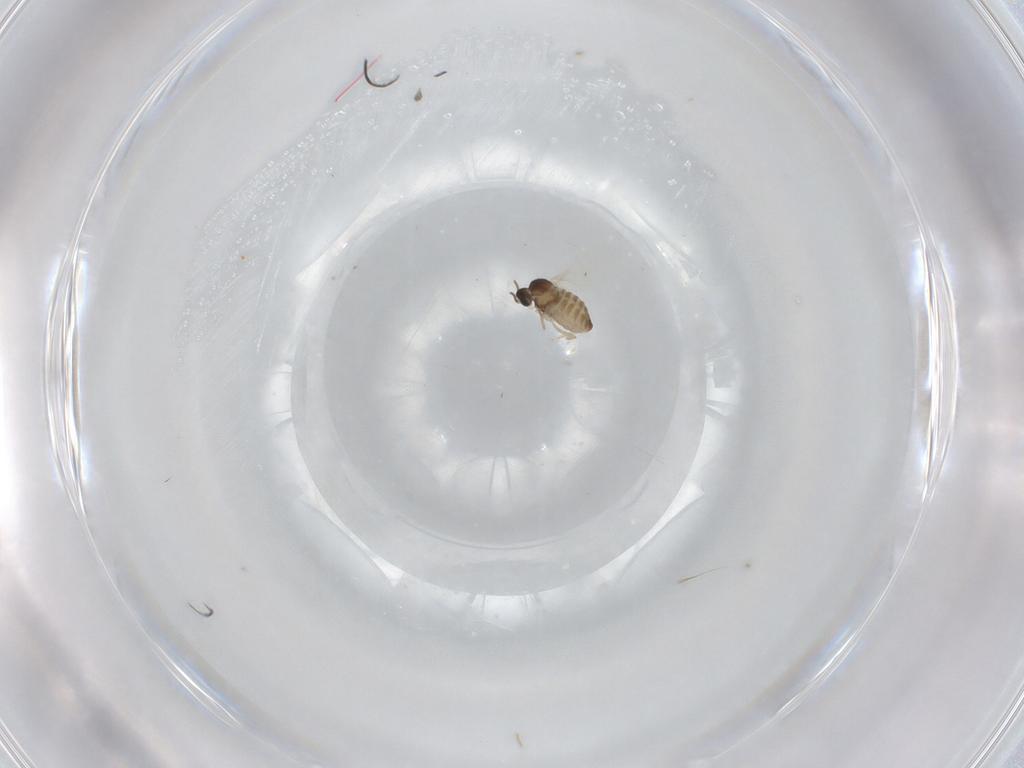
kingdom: Animalia
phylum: Arthropoda
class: Insecta
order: Diptera
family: Cecidomyiidae
